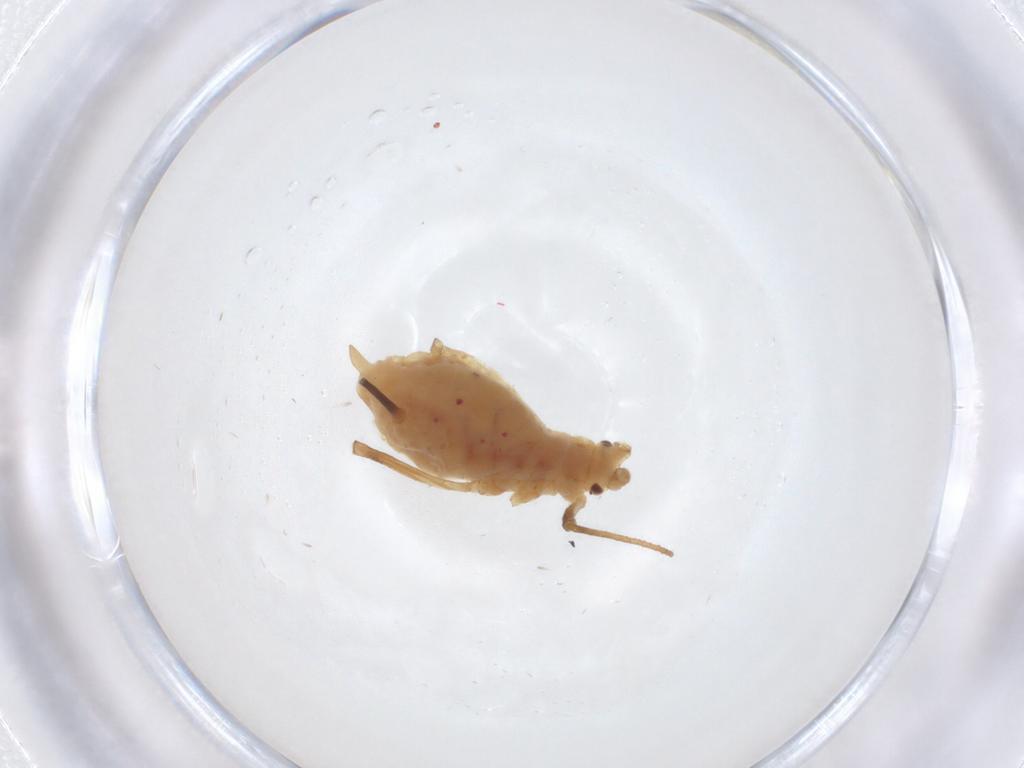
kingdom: Animalia
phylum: Arthropoda
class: Insecta
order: Hemiptera
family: Aphididae
